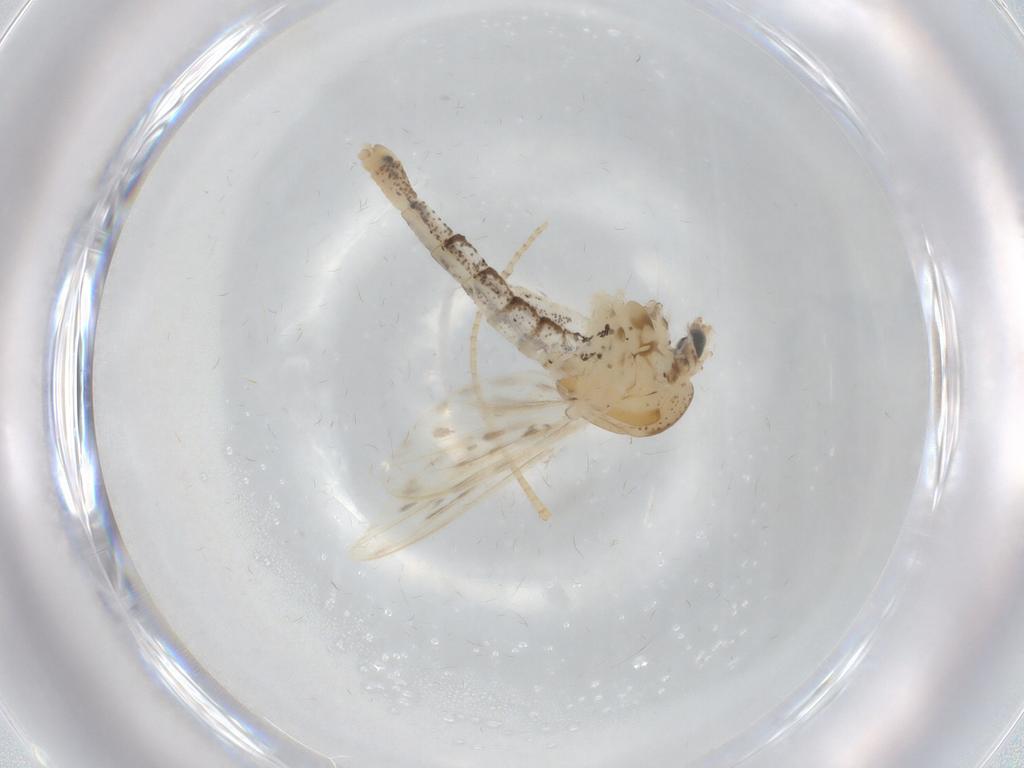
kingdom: Animalia
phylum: Arthropoda
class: Insecta
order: Diptera
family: Chaoboridae
